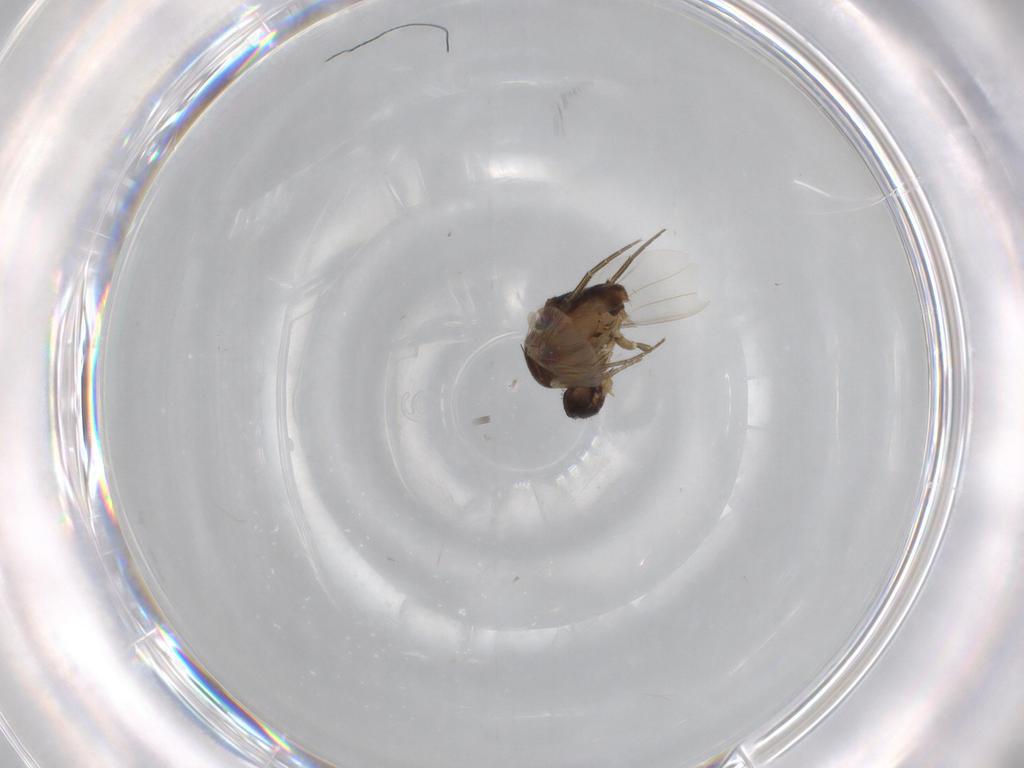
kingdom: Animalia
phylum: Arthropoda
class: Insecta
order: Diptera
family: Phoridae
